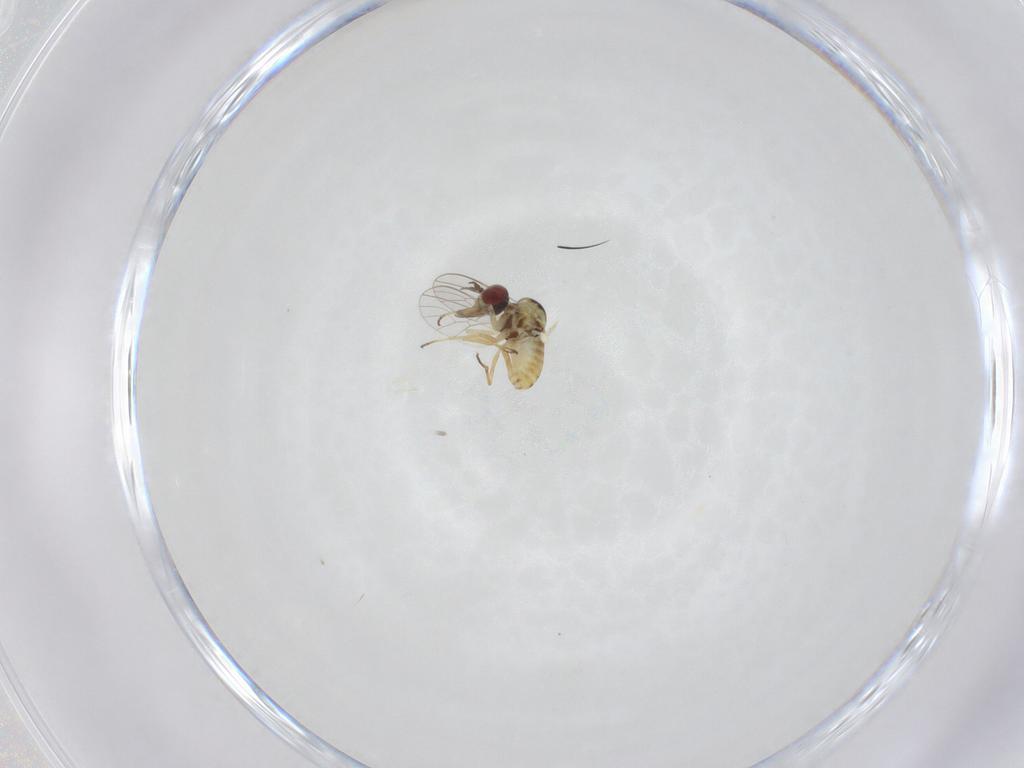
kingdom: Animalia
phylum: Arthropoda
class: Insecta
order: Diptera
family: Mythicomyiidae
